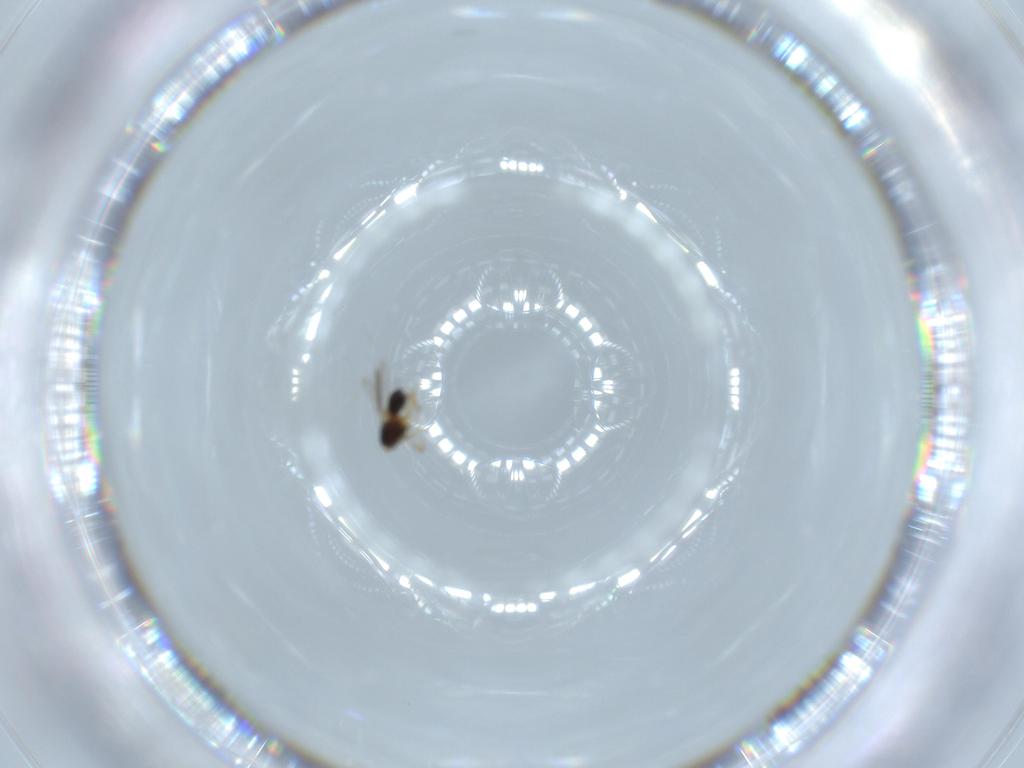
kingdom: Animalia
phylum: Arthropoda
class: Insecta
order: Hymenoptera
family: Scelionidae
